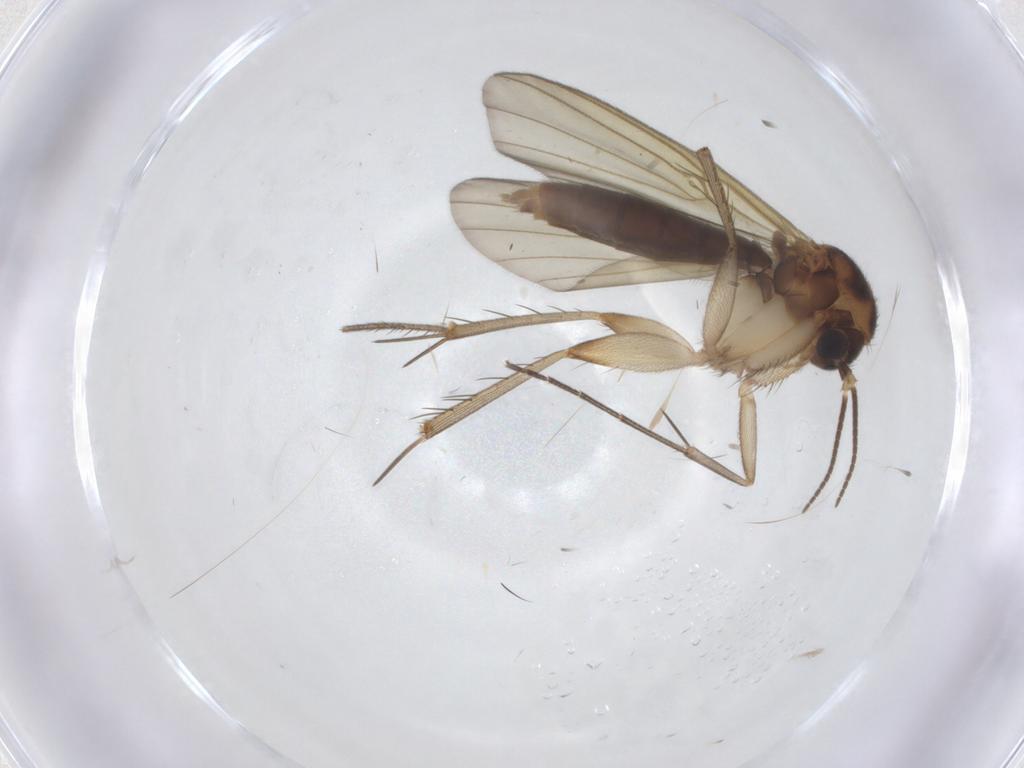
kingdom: Animalia
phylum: Arthropoda
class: Insecta
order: Diptera
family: Mycetophilidae
